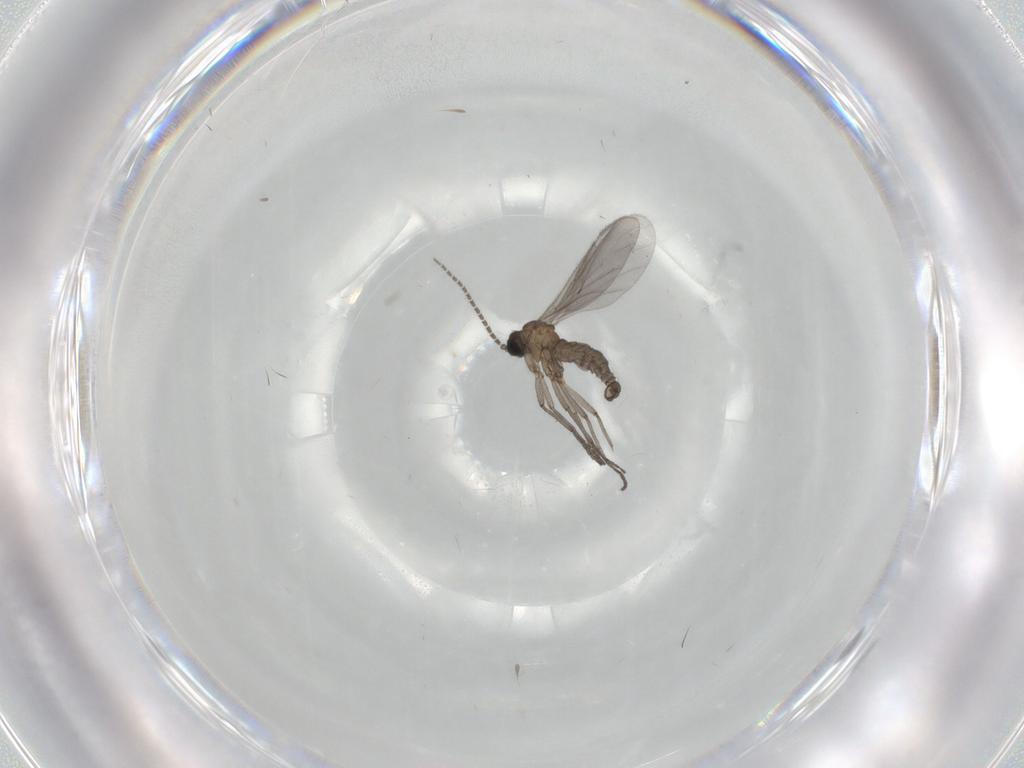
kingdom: Animalia
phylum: Arthropoda
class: Insecta
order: Diptera
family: Sciaridae
